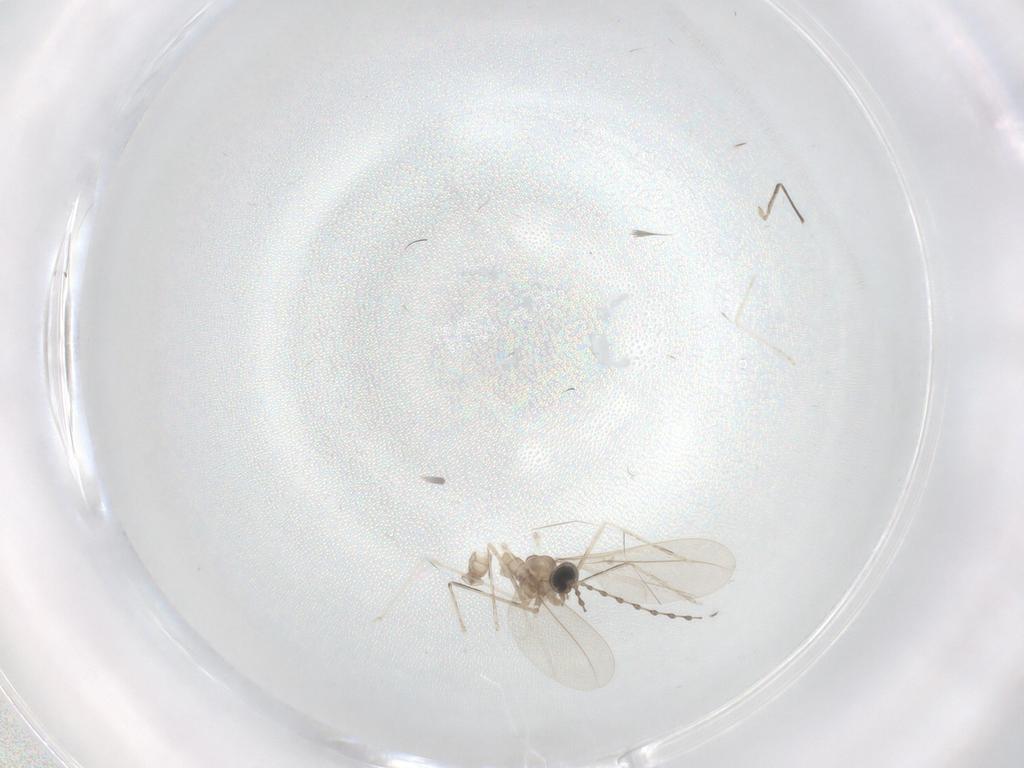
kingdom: Animalia
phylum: Arthropoda
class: Insecta
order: Diptera
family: Cecidomyiidae
